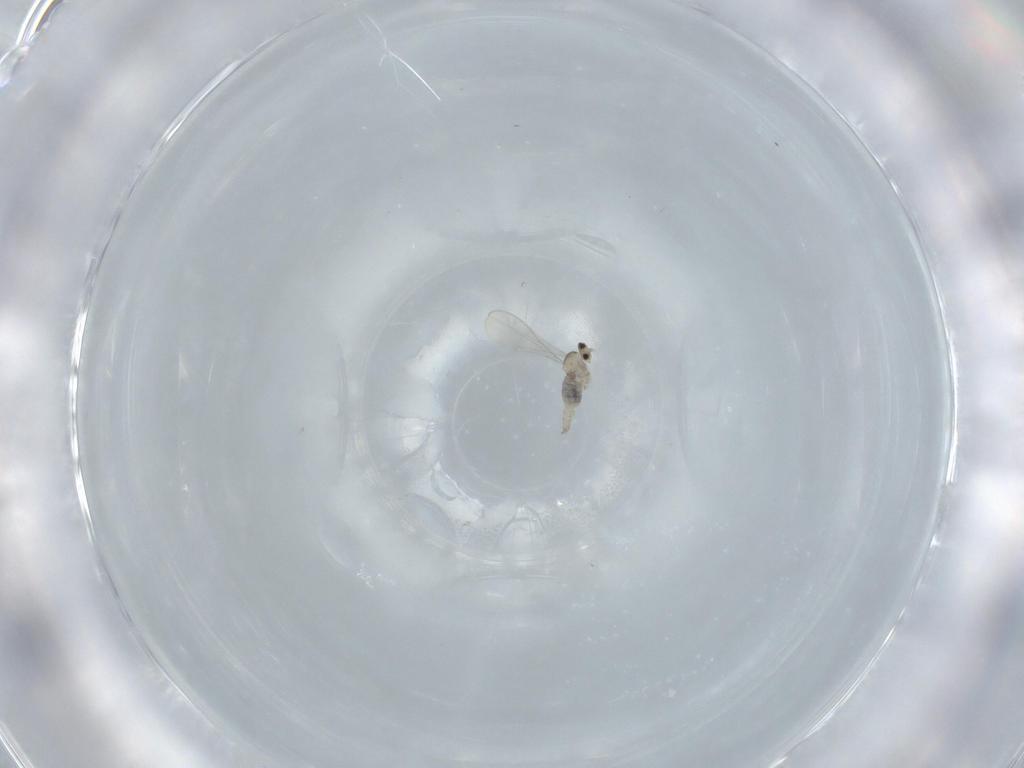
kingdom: Animalia
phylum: Arthropoda
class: Insecta
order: Diptera
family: Cecidomyiidae
